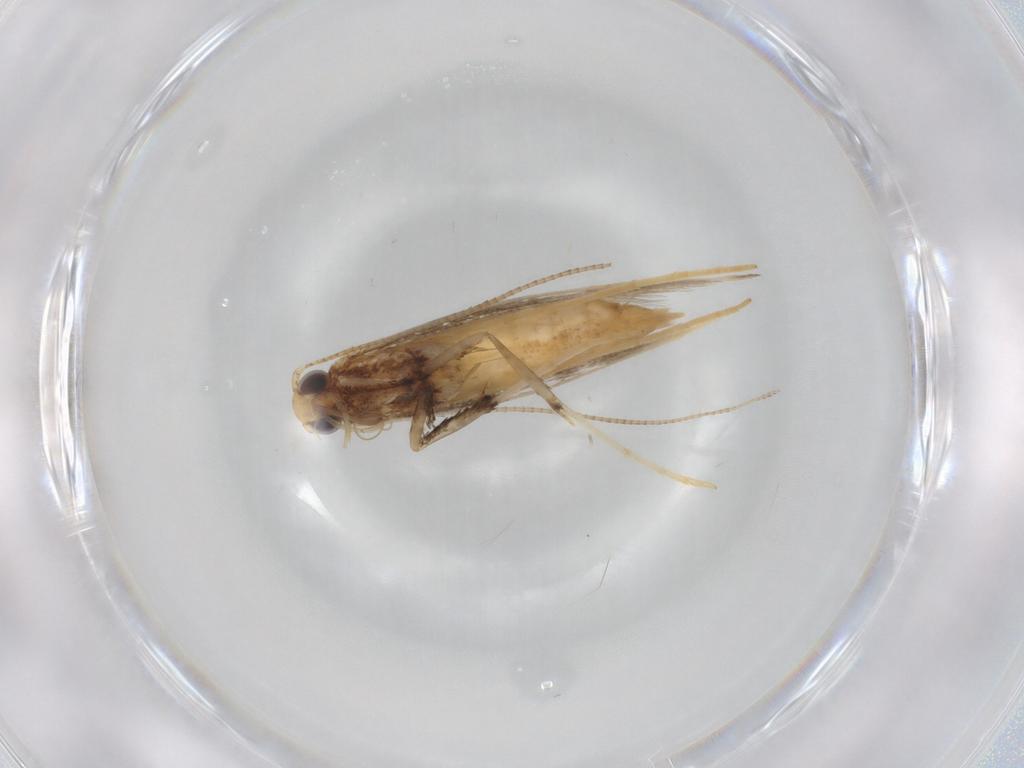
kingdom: Animalia
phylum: Arthropoda
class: Insecta
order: Lepidoptera
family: Gracillariidae
